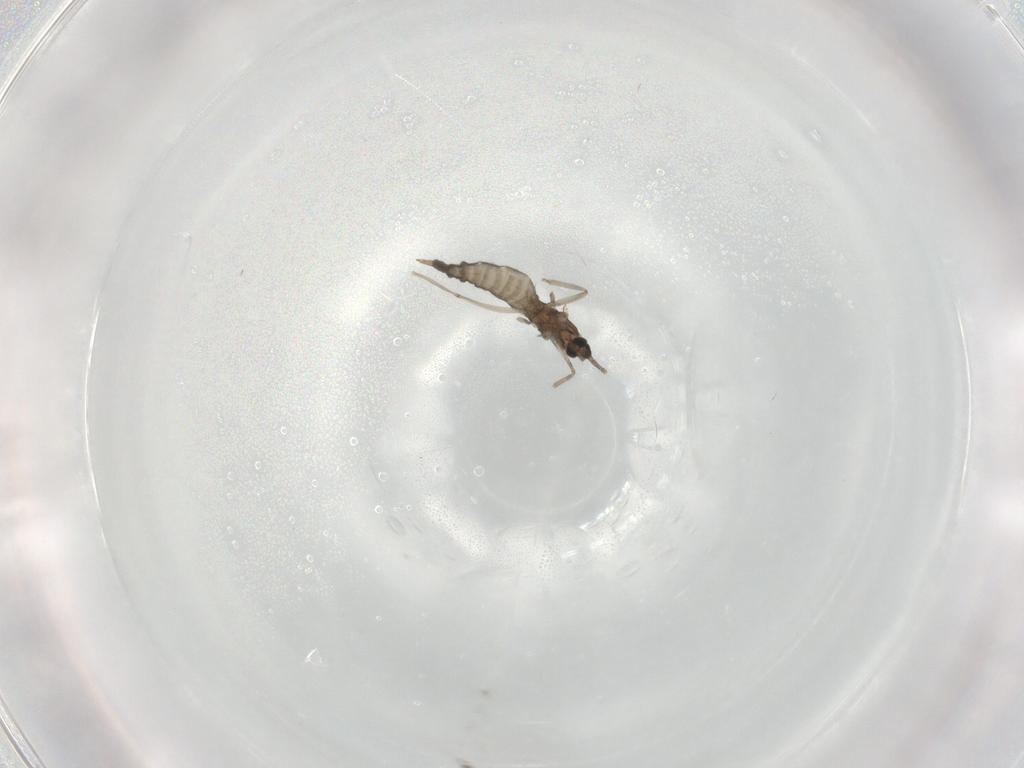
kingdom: Animalia
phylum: Arthropoda
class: Insecta
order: Diptera
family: Cecidomyiidae
